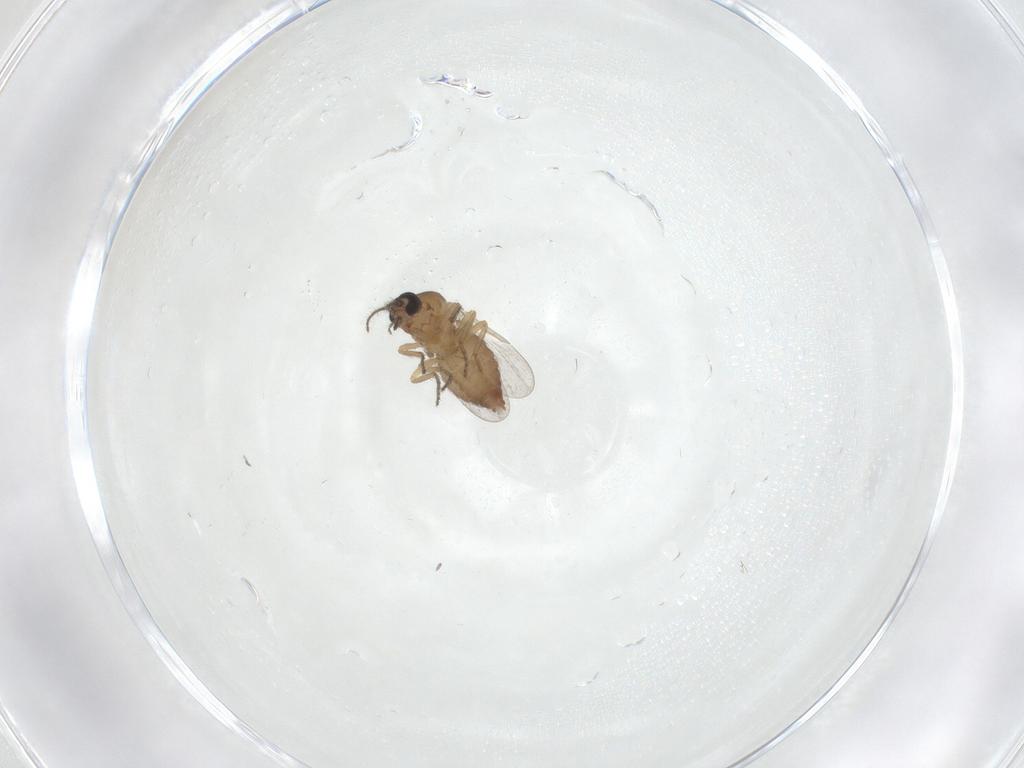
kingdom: Animalia
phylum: Arthropoda
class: Insecta
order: Diptera
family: Ceratopogonidae
